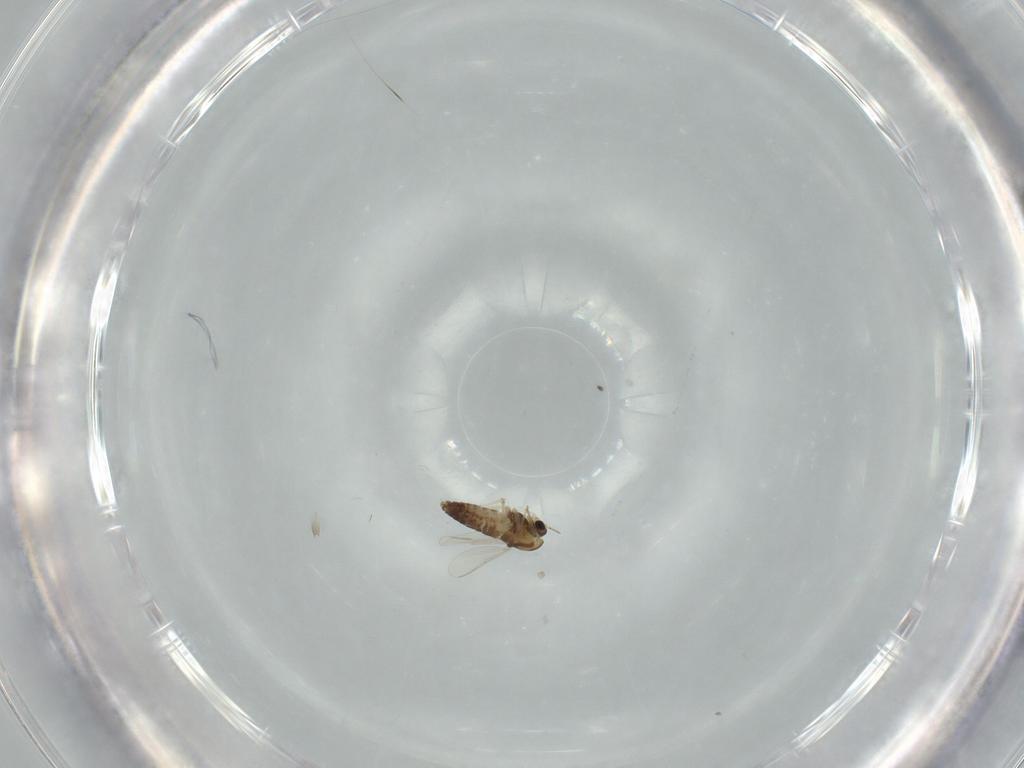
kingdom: Animalia
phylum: Arthropoda
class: Insecta
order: Diptera
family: Chironomidae
